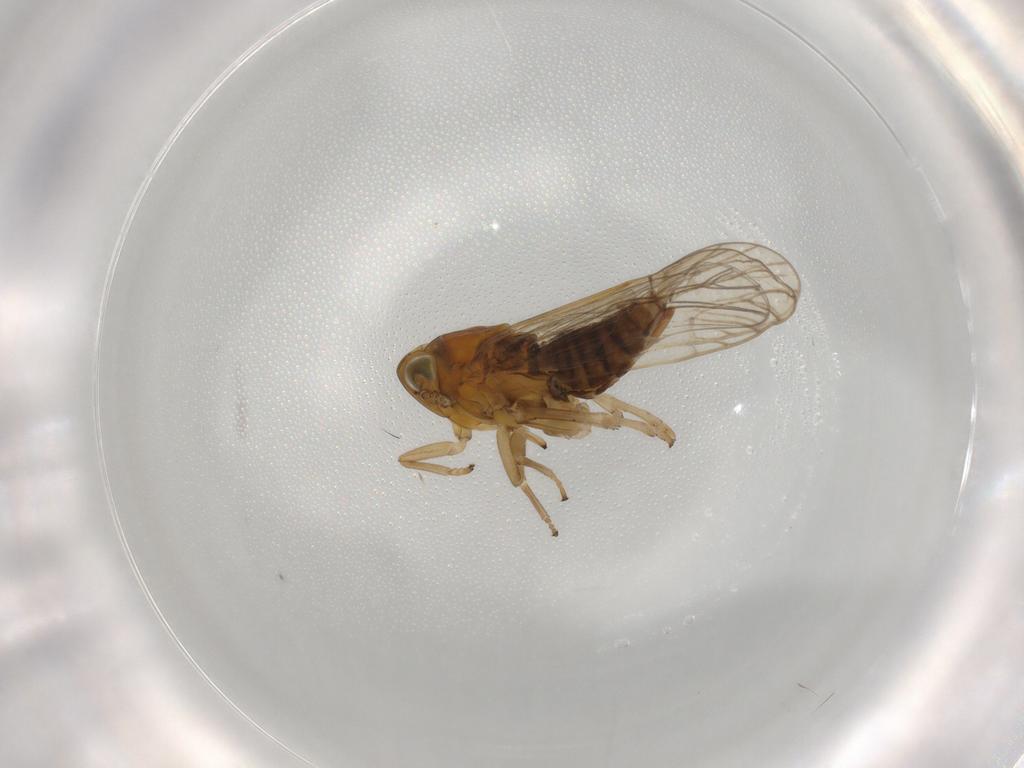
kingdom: Animalia
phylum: Arthropoda
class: Insecta
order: Hemiptera
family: Delphacidae
